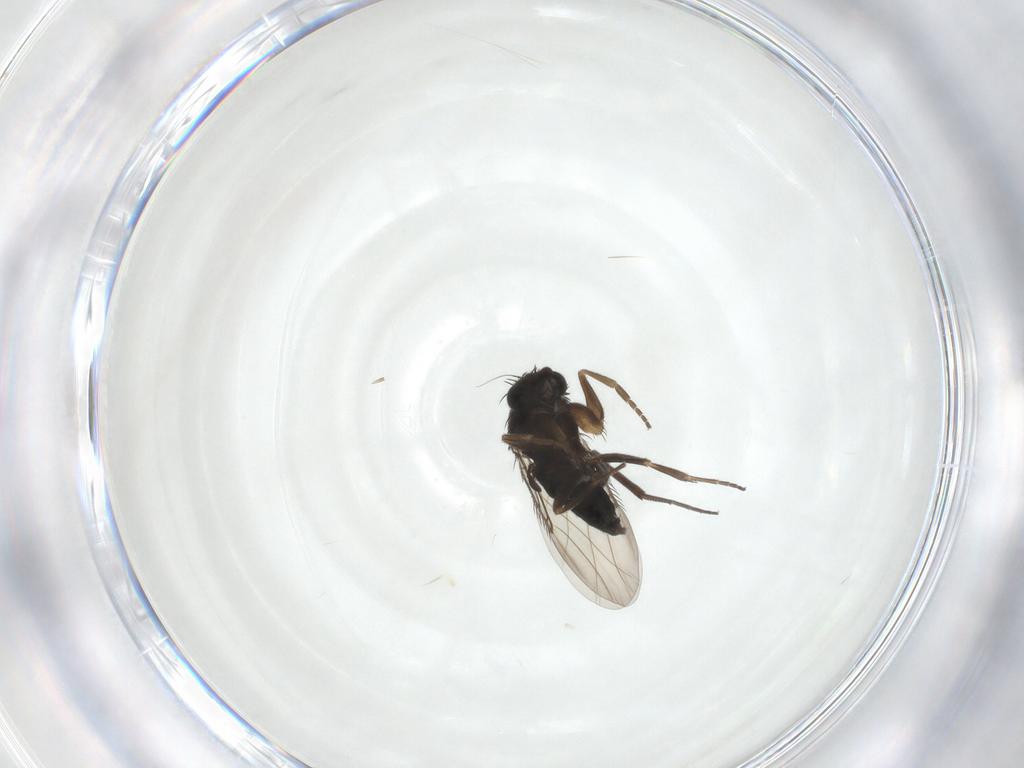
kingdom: Animalia
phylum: Arthropoda
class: Insecta
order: Diptera
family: Phoridae
